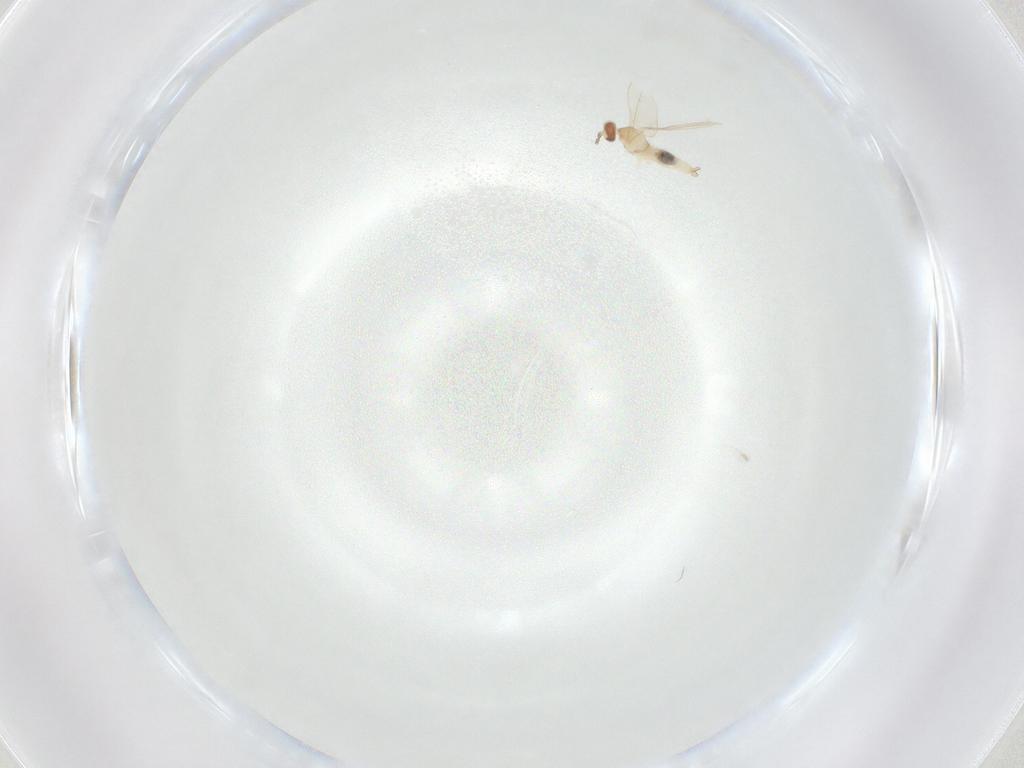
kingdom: Animalia
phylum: Arthropoda
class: Insecta
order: Diptera
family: Cecidomyiidae
